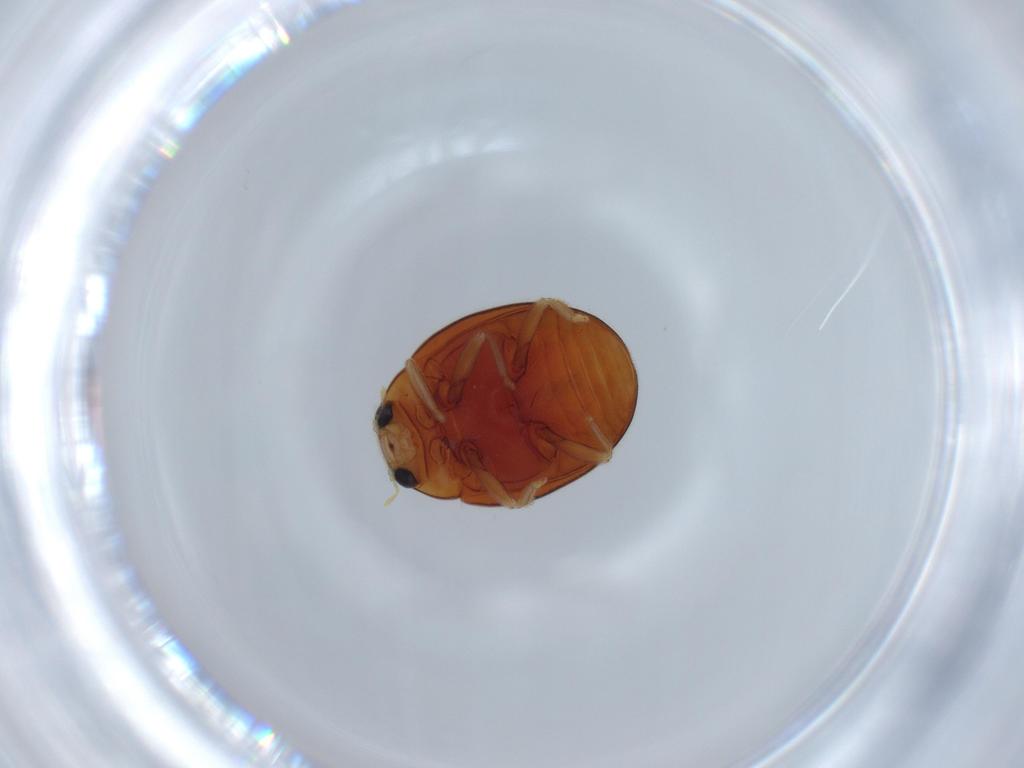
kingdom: Animalia
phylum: Arthropoda
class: Insecta
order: Coleoptera
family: Coccinellidae
